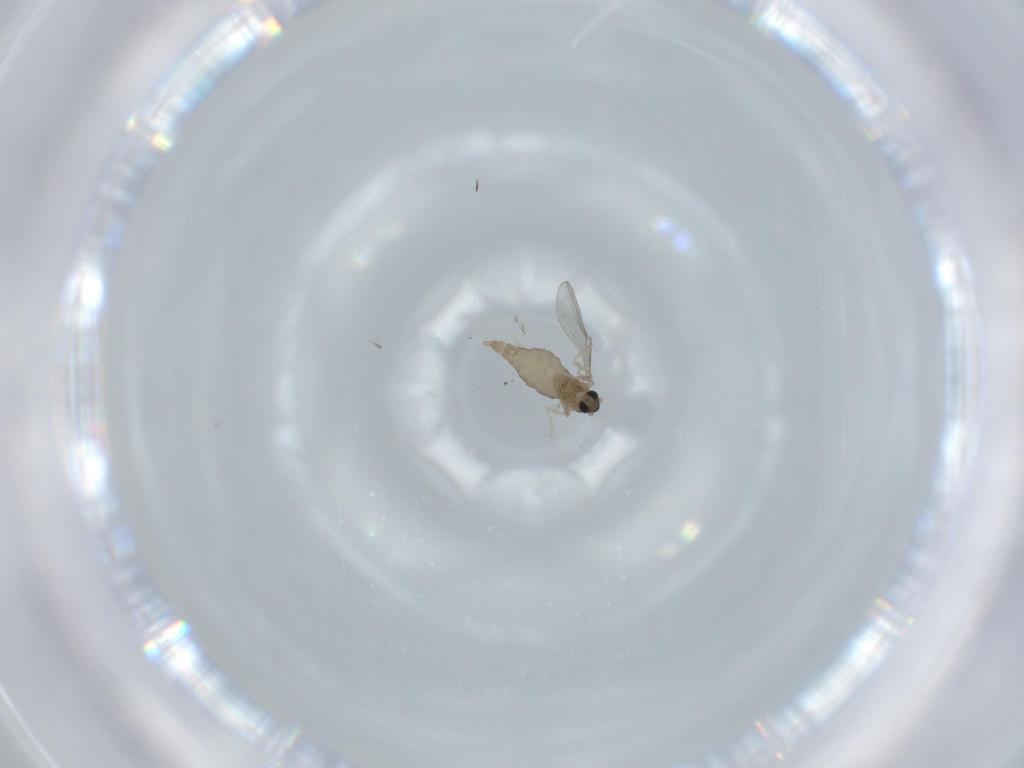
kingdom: Animalia
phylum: Arthropoda
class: Insecta
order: Diptera
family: Cecidomyiidae
